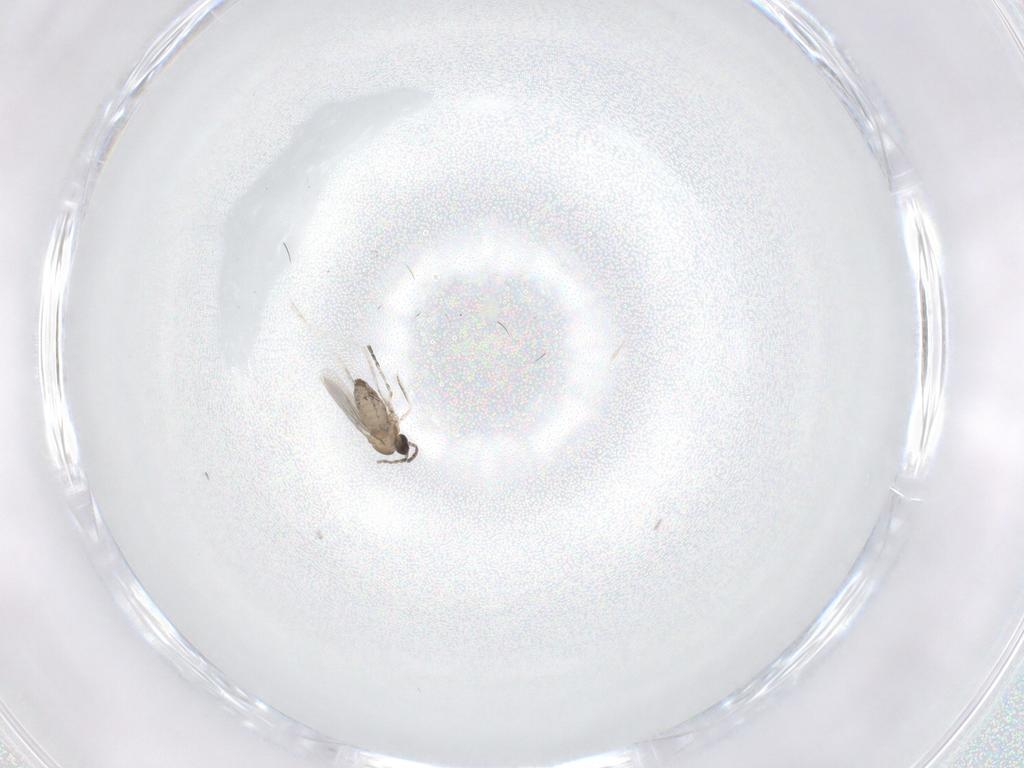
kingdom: Animalia
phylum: Arthropoda
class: Insecta
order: Diptera
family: Cecidomyiidae
